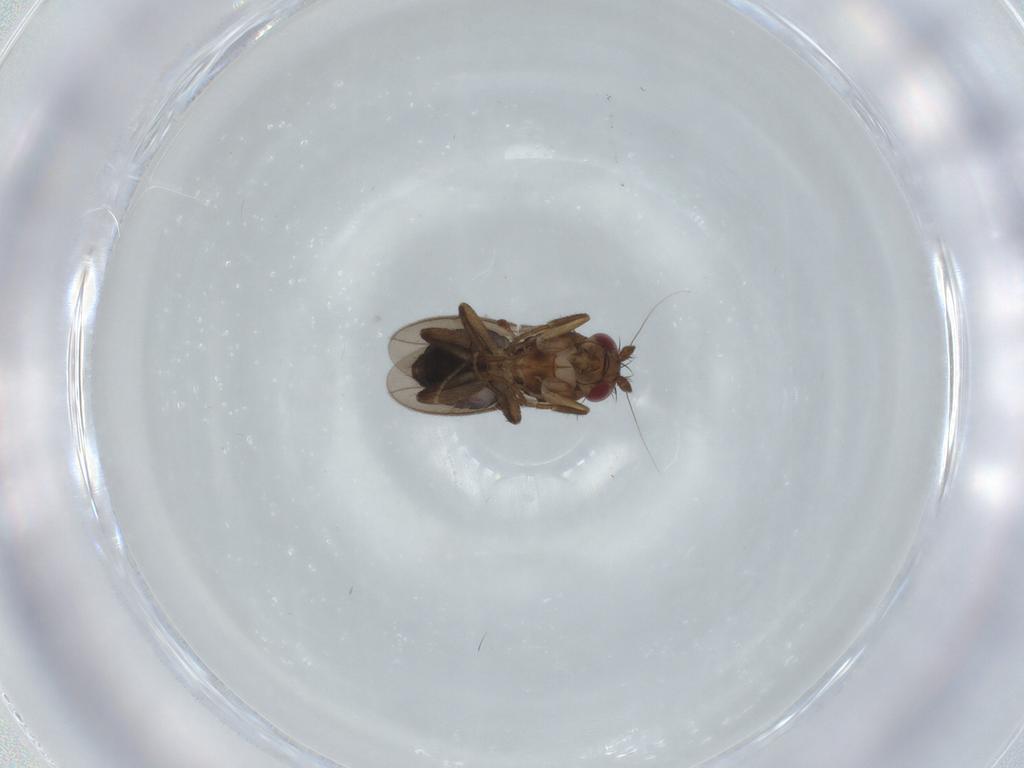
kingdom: Animalia
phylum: Arthropoda
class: Insecta
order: Diptera
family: Sphaeroceridae
